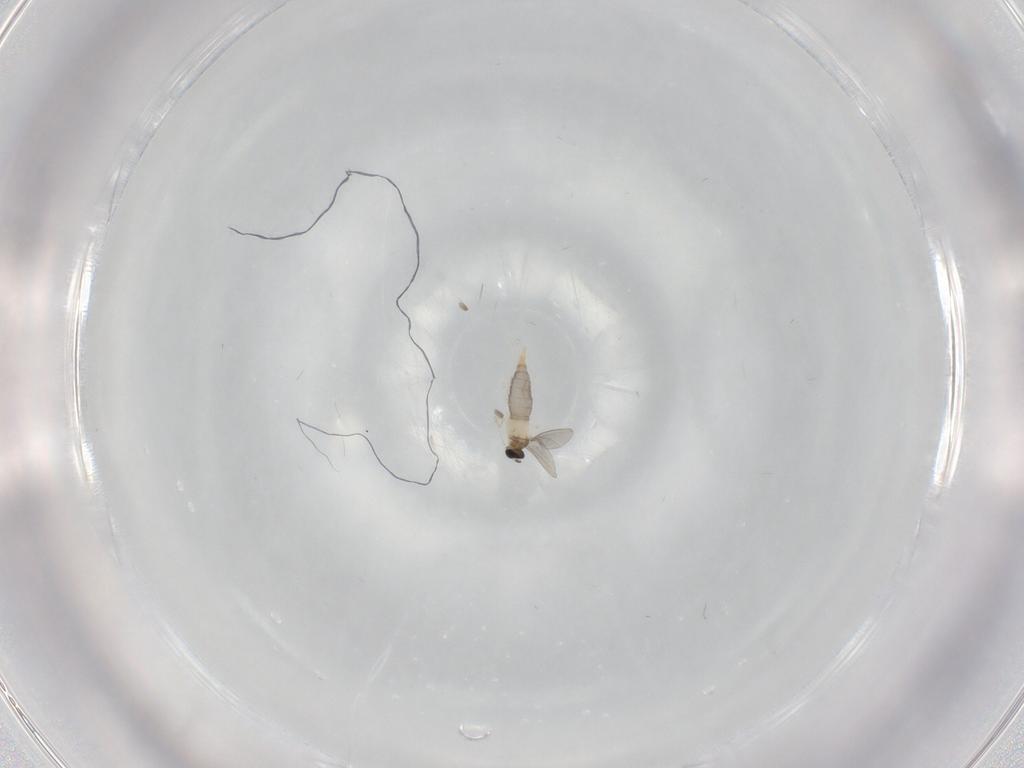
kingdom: Animalia
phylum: Arthropoda
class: Insecta
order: Diptera
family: Cecidomyiidae
